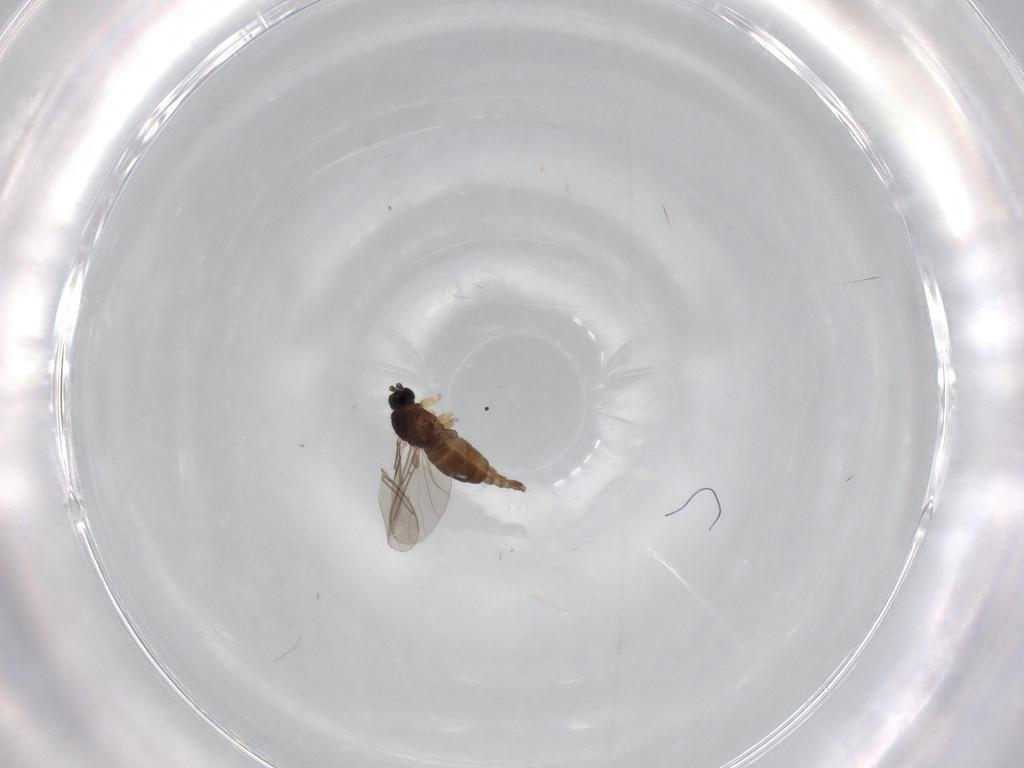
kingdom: Animalia
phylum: Arthropoda
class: Insecta
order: Diptera
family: Sciaridae
